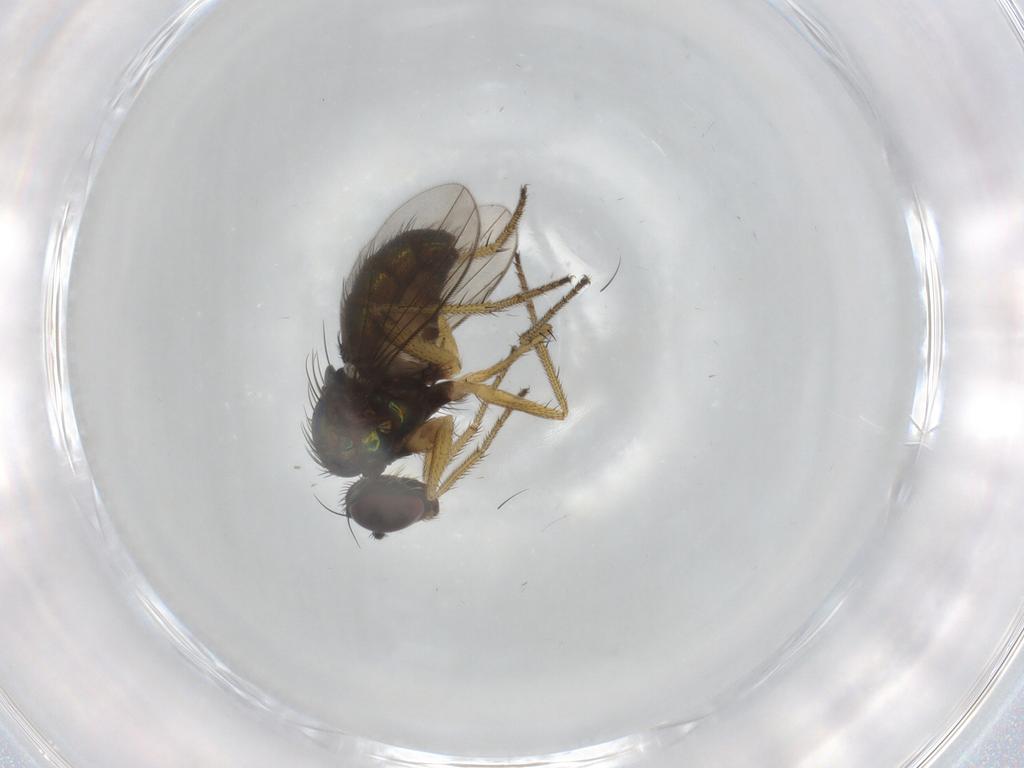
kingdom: Animalia
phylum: Arthropoda
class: Insecta
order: Diptera
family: Dolichopodidae
